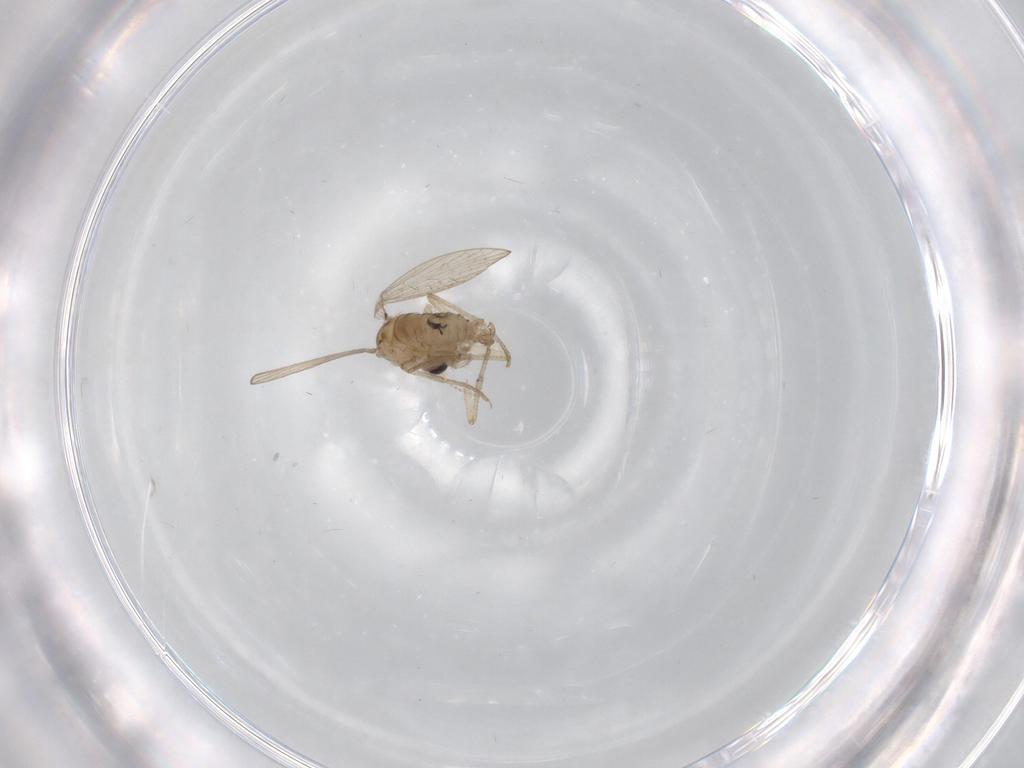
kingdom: Animalia
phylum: Arthropoda
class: Insecta
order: Diptera
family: Psychodidae
